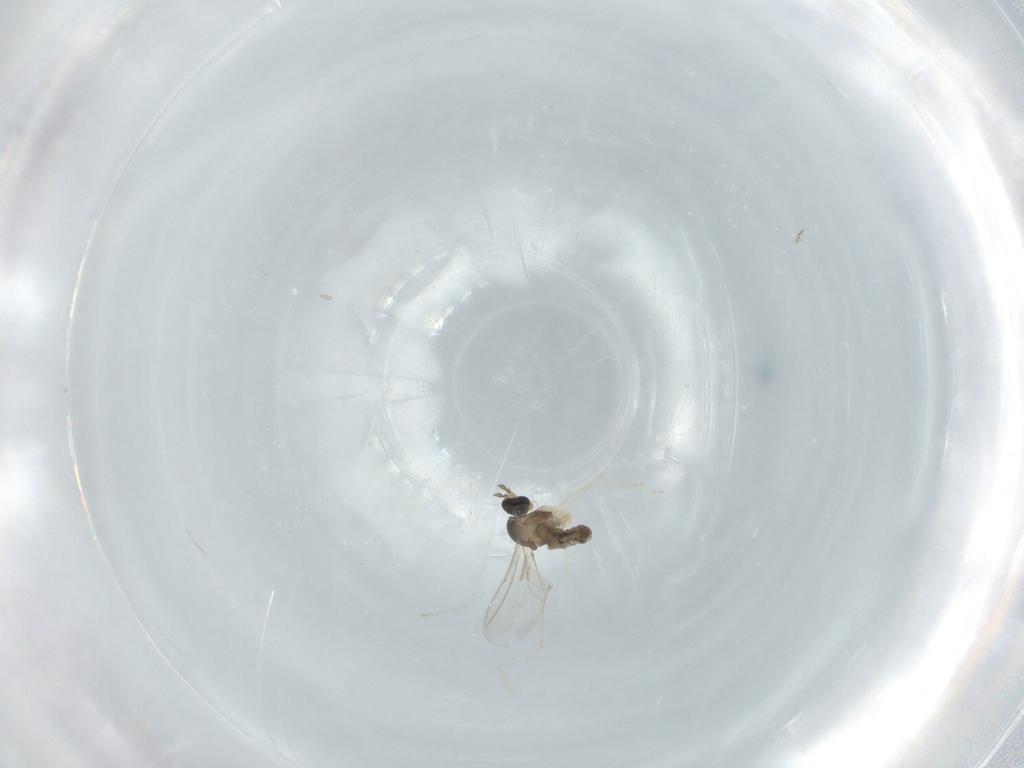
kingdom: Animalia
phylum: Arthropoda
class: Insecta
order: Diptera
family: Cecidomyiidae
